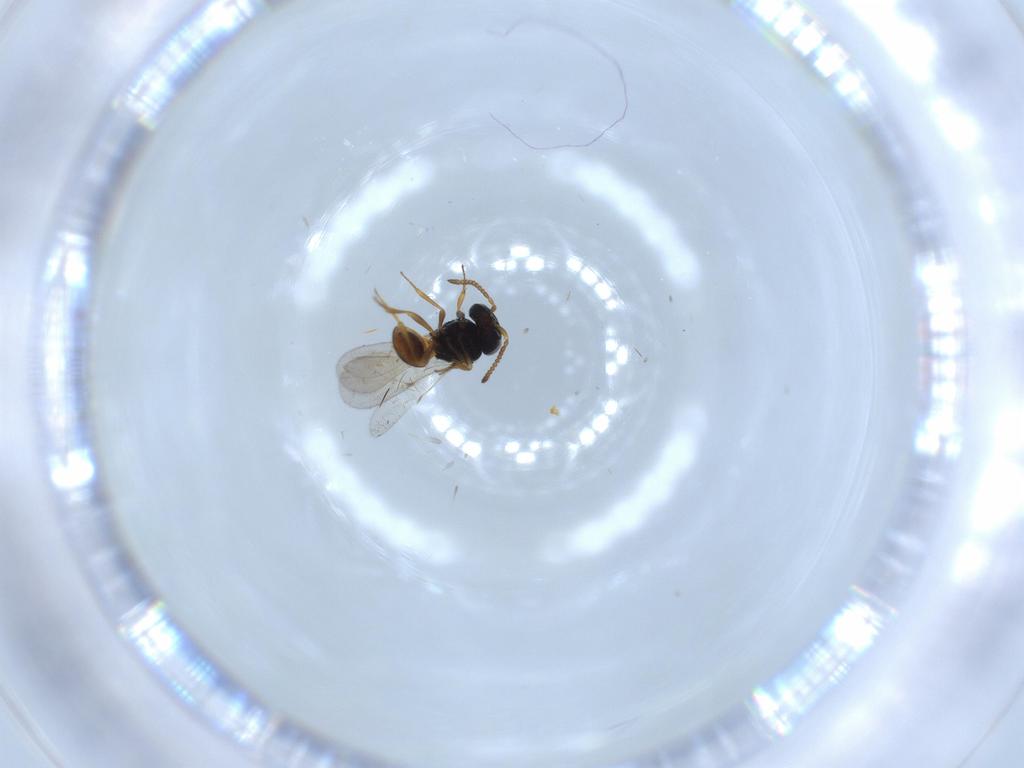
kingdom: Animalia
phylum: Arthropoda
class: Insecta
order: Hymenoptera
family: Scelionidae
